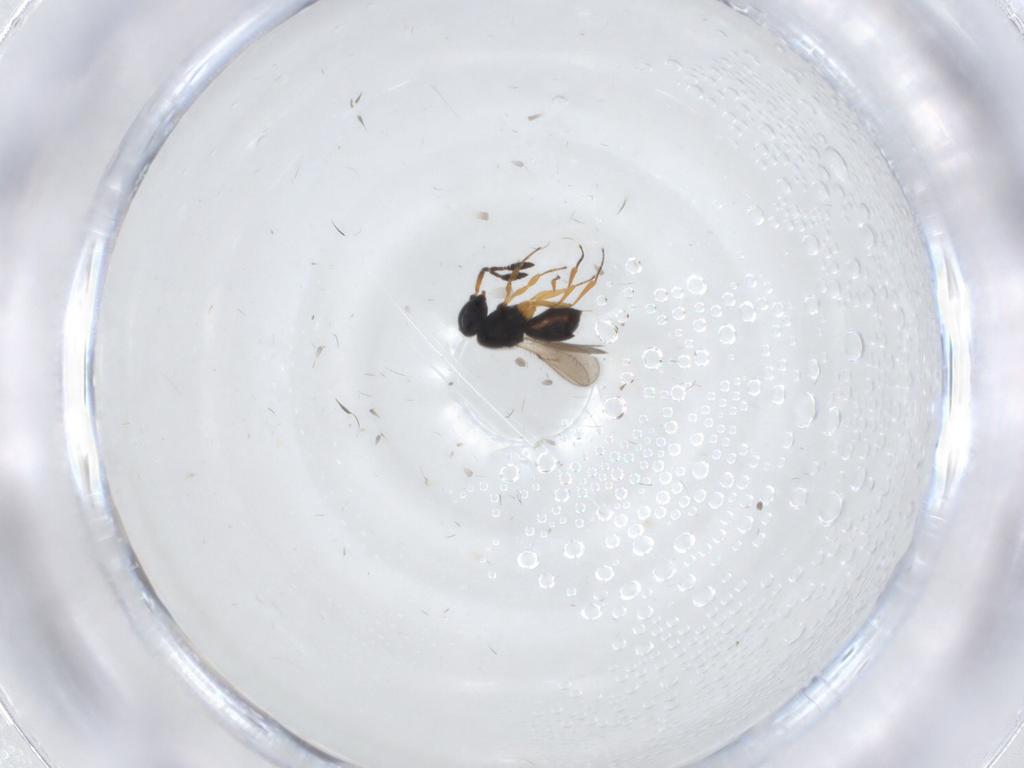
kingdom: Animalia
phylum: Arthropoda
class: Insecta
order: Hymenoptera
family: Scelionidae
